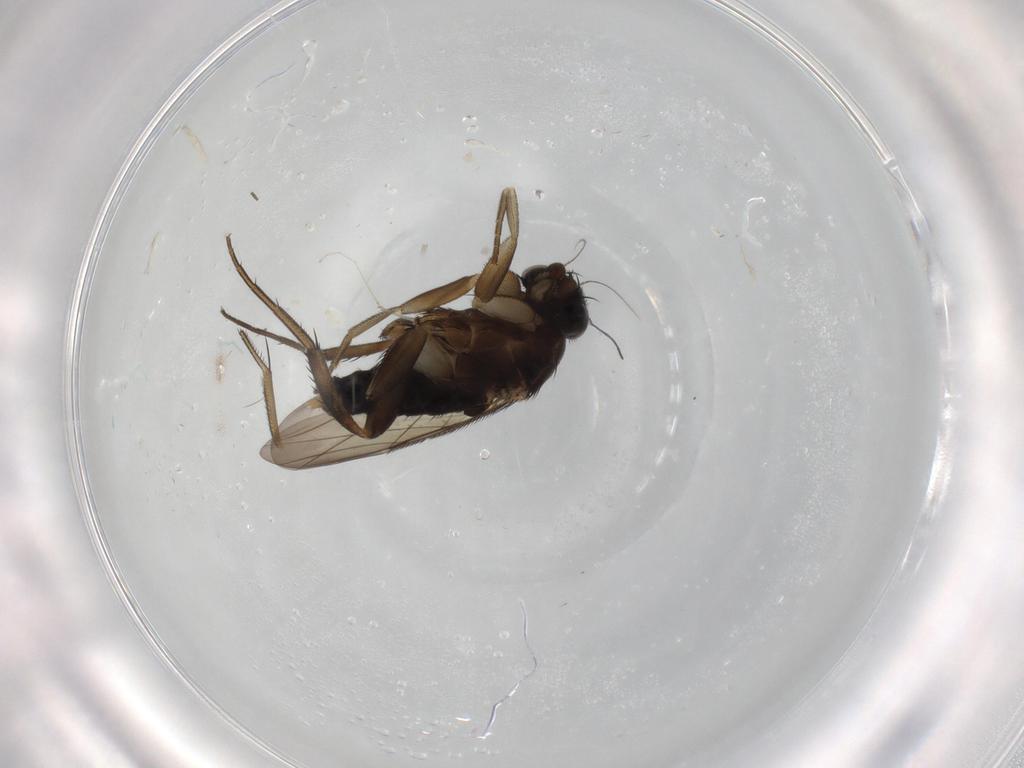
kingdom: Animalia
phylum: Arthropoda
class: Insecta
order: Diptera
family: Phoridae
